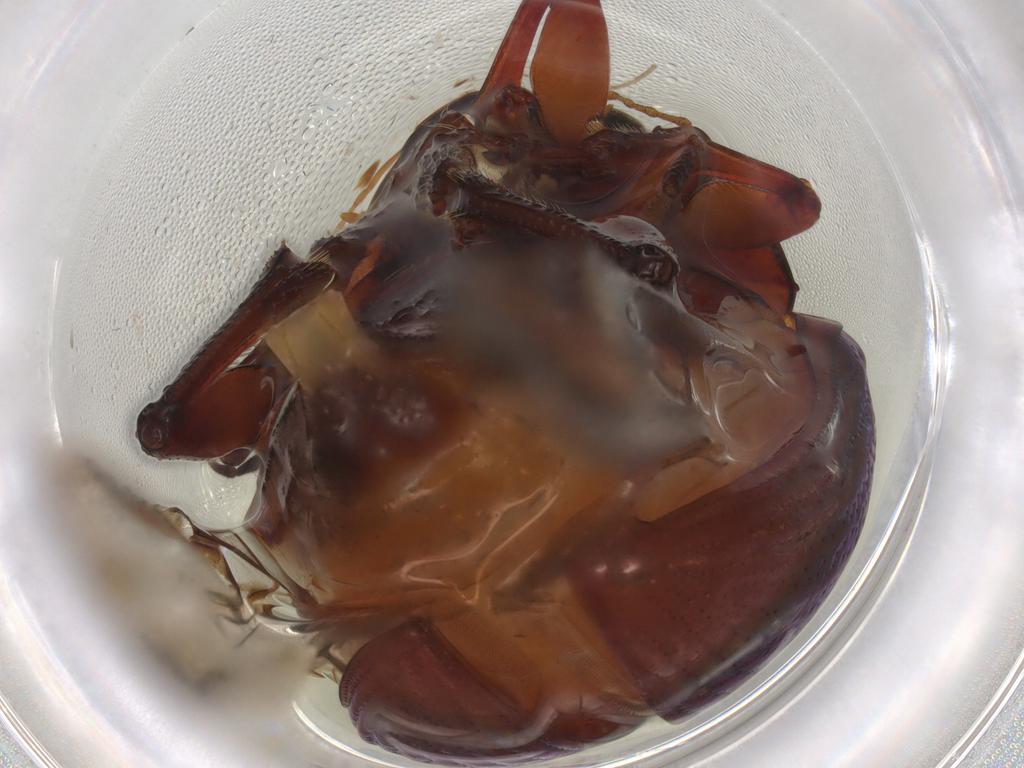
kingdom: Animalia
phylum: Arthropoda
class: Insecta
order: Coleoptera
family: Chrysomelidae
